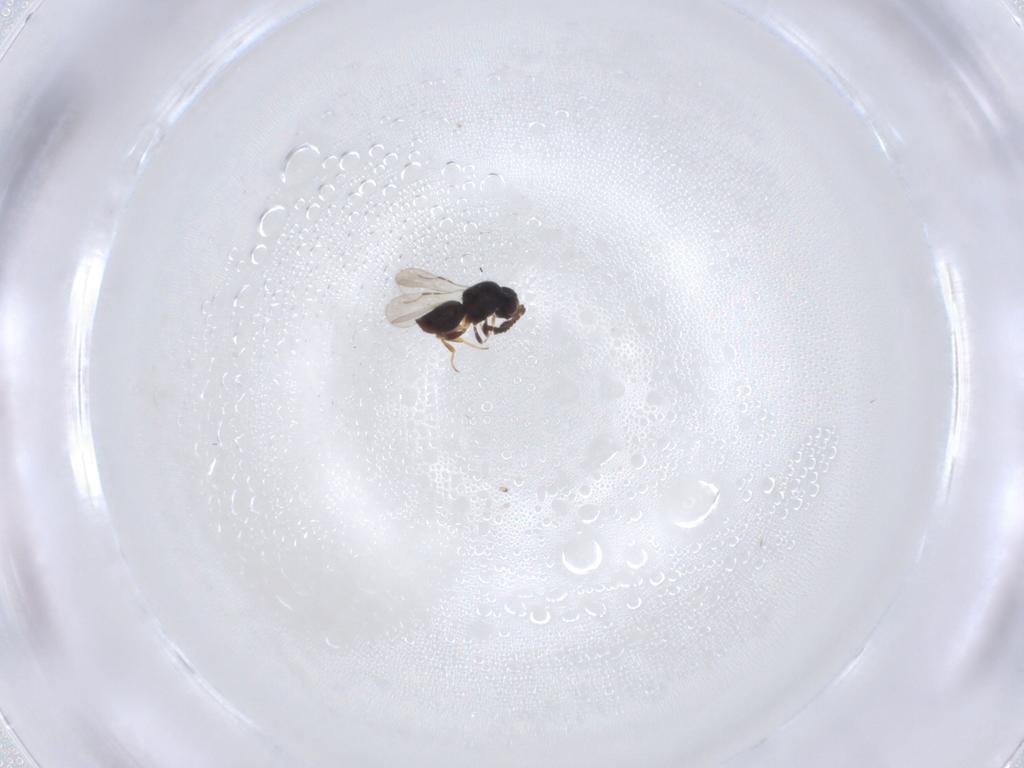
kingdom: Animalia
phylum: Arthropoda
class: Insecta
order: Hymenoptera
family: Ceraphronidae
